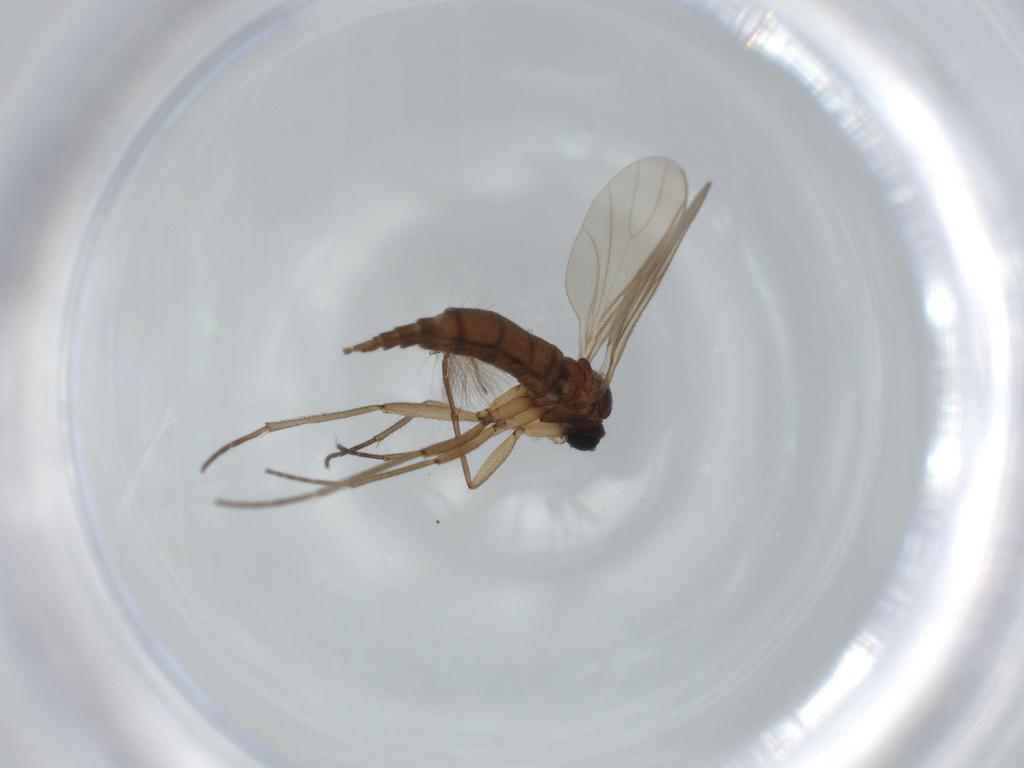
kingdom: Animalia
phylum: Arthropoda
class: Insecta
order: Diptera
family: Sciaridae
